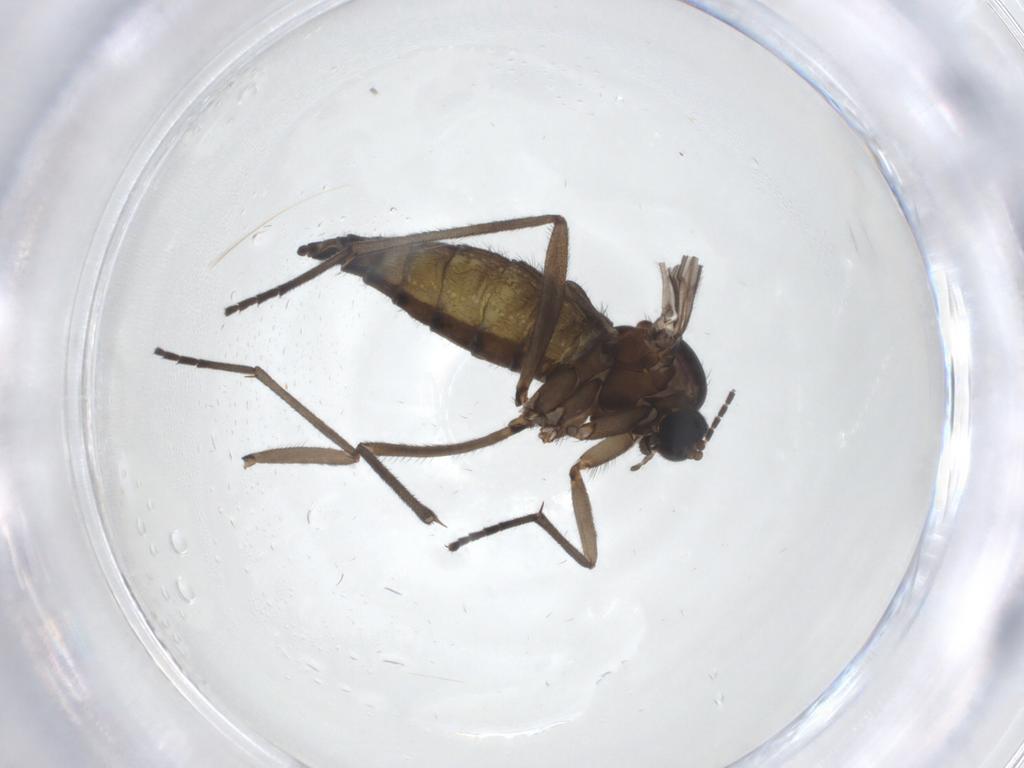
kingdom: Animalia
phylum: Arthropoda
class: Insecta
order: Diptera
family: Sciaridae
